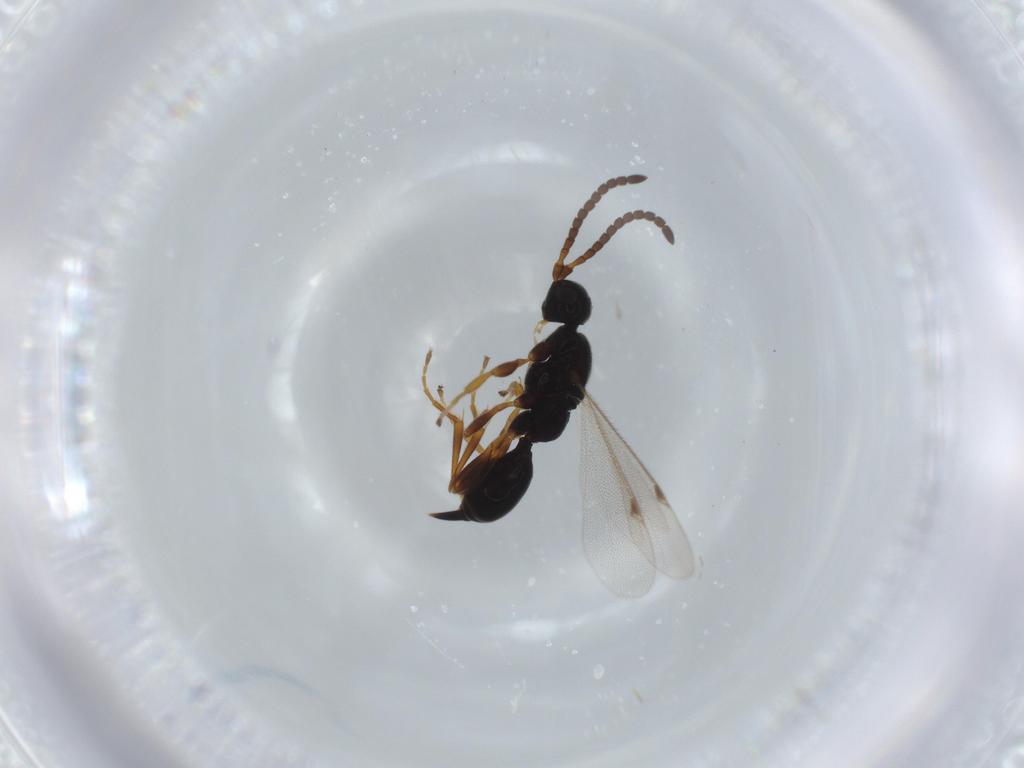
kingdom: Animalia
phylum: Arthropoda
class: Insecta
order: Hymenoptera
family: Proctotrupidae
